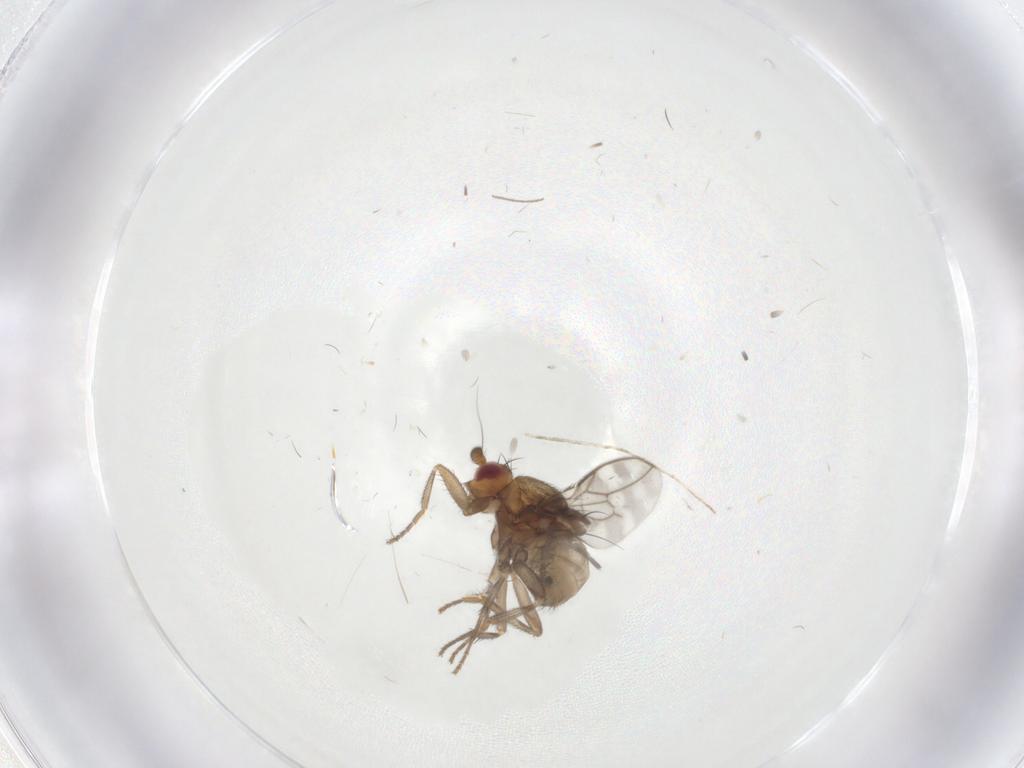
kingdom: Animalia
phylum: Arthropoda
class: Insecta
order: Diptera
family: Sphaeroceridae
